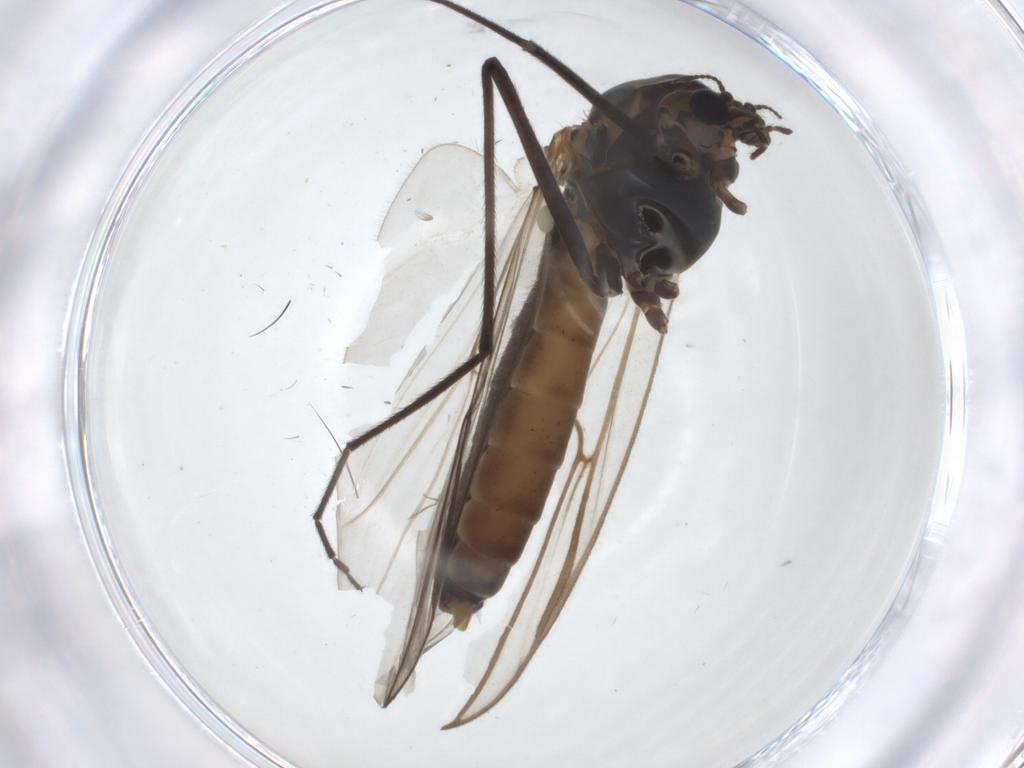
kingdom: Animalia
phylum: Arthropoda
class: Insecta
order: Diptera
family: Chironomidae
